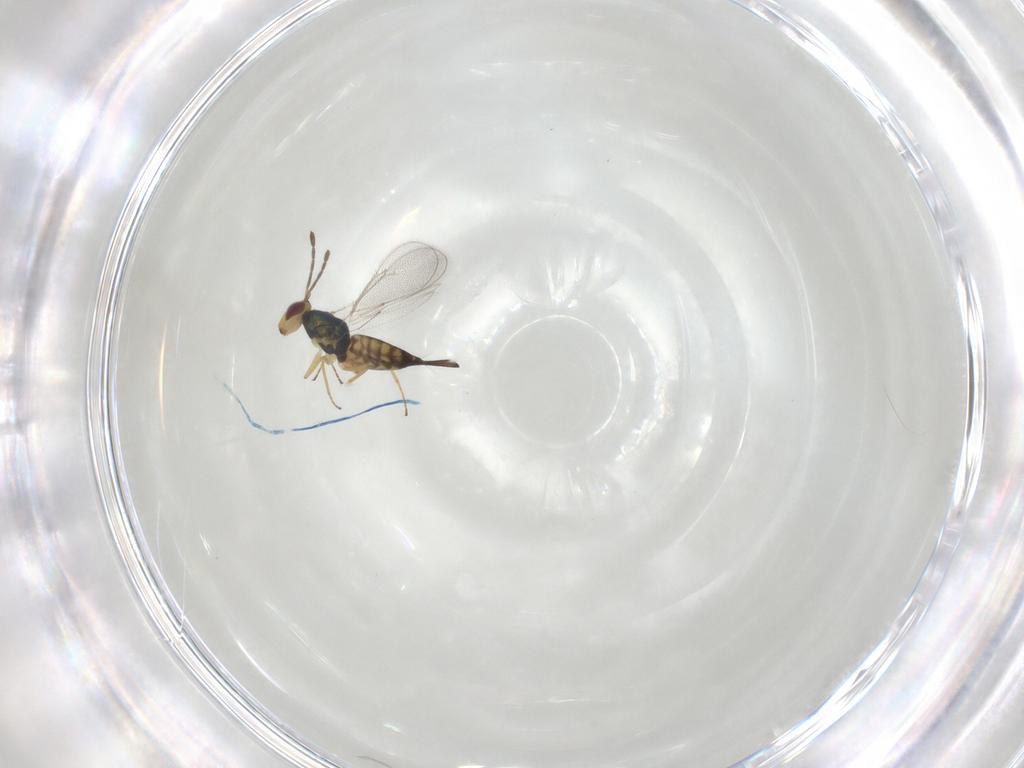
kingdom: Animalia
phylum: Arthropoda
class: Insecta
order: Hymenoptera
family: Eulophidae
